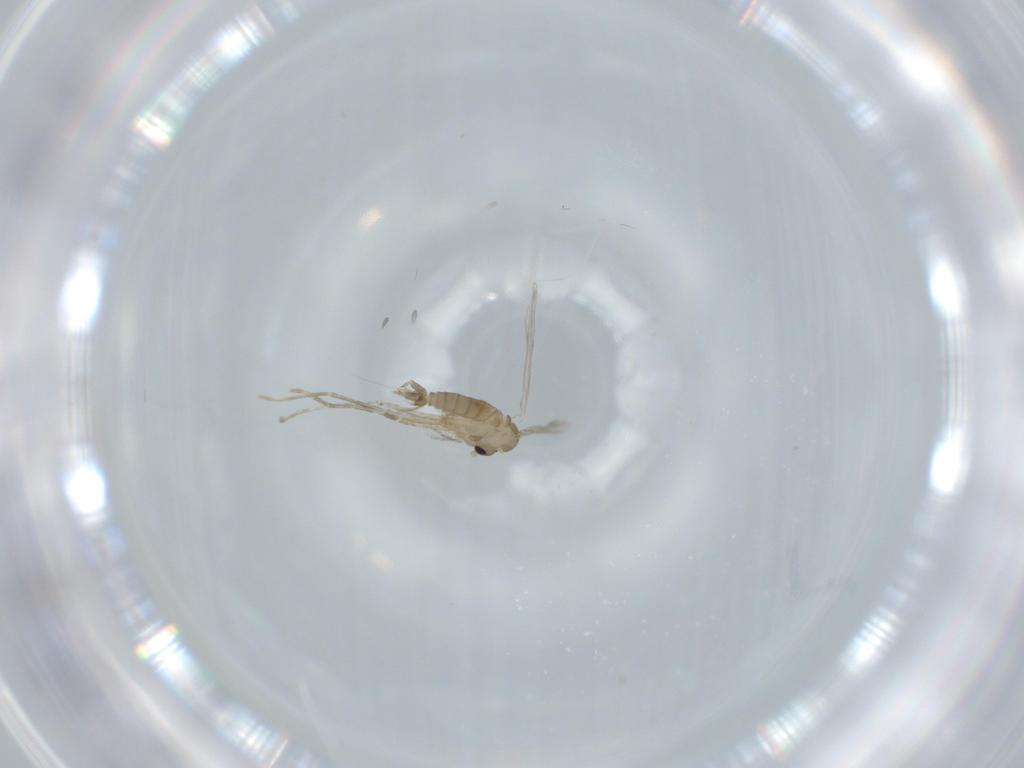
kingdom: Animalia
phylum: Arthropoda
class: Insecta
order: Diptera
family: Psychodidae
